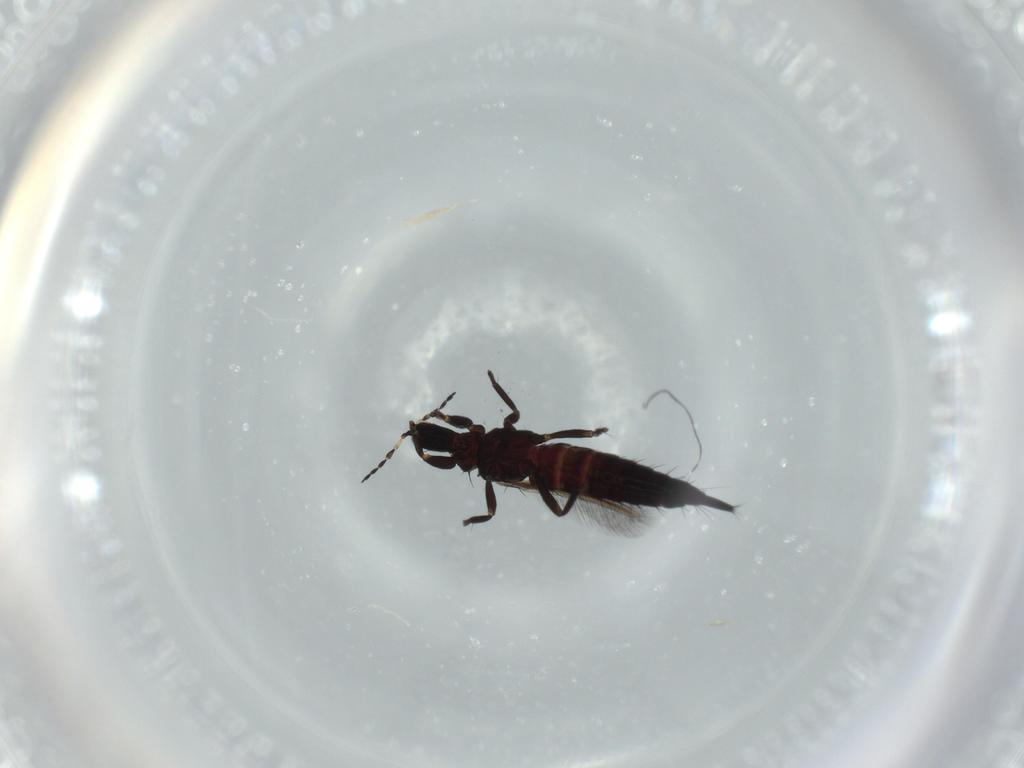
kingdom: Animalia
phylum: Arthropoda
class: Insecta
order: Thysanoptera
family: Phlaeothripidae
